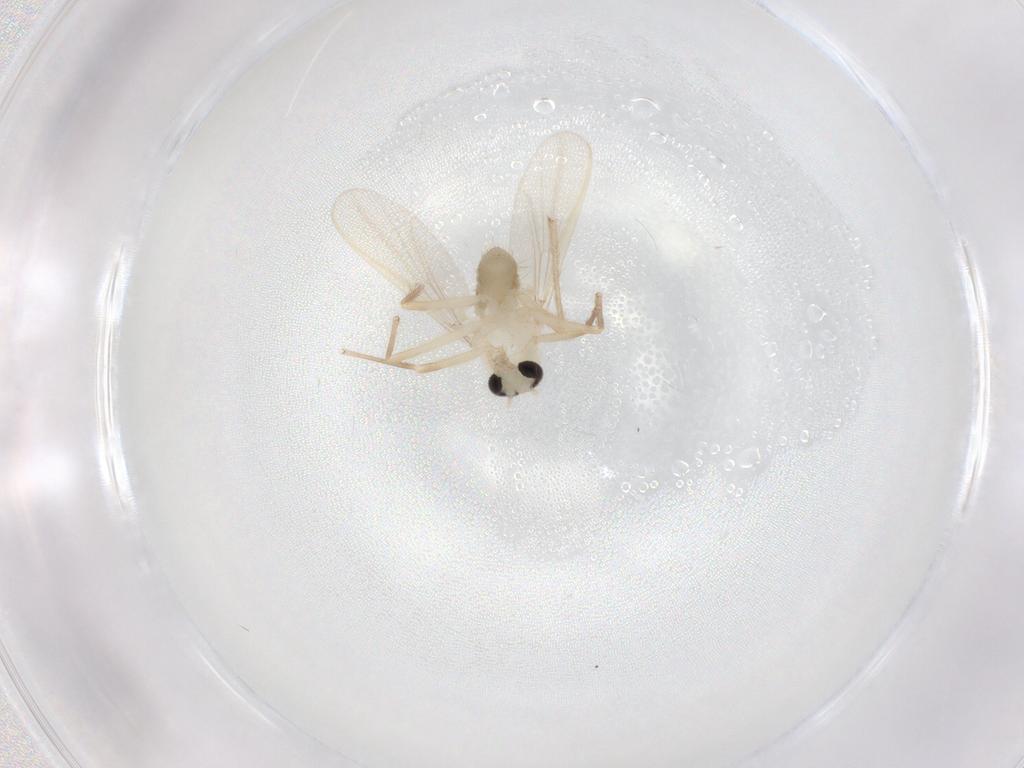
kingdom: Animalia
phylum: Arthropoda
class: Insecta
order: Diptera
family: Chironomidae
